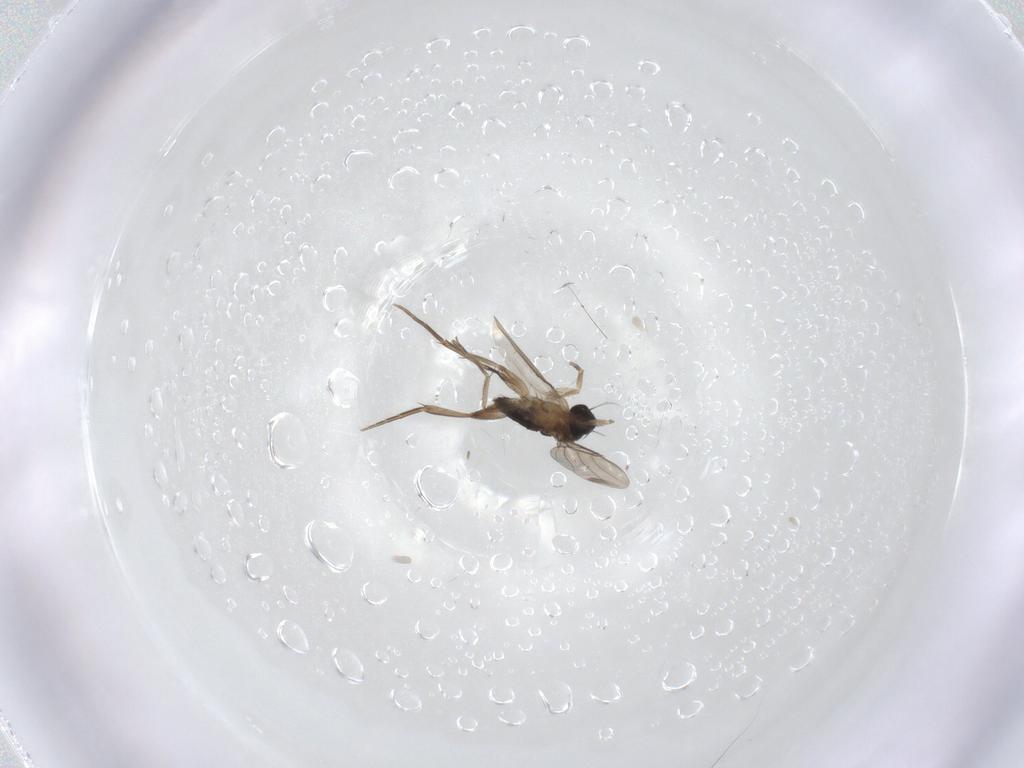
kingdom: Animalia
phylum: Arthropoda
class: Insecta
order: Diptera
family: Phoridae
